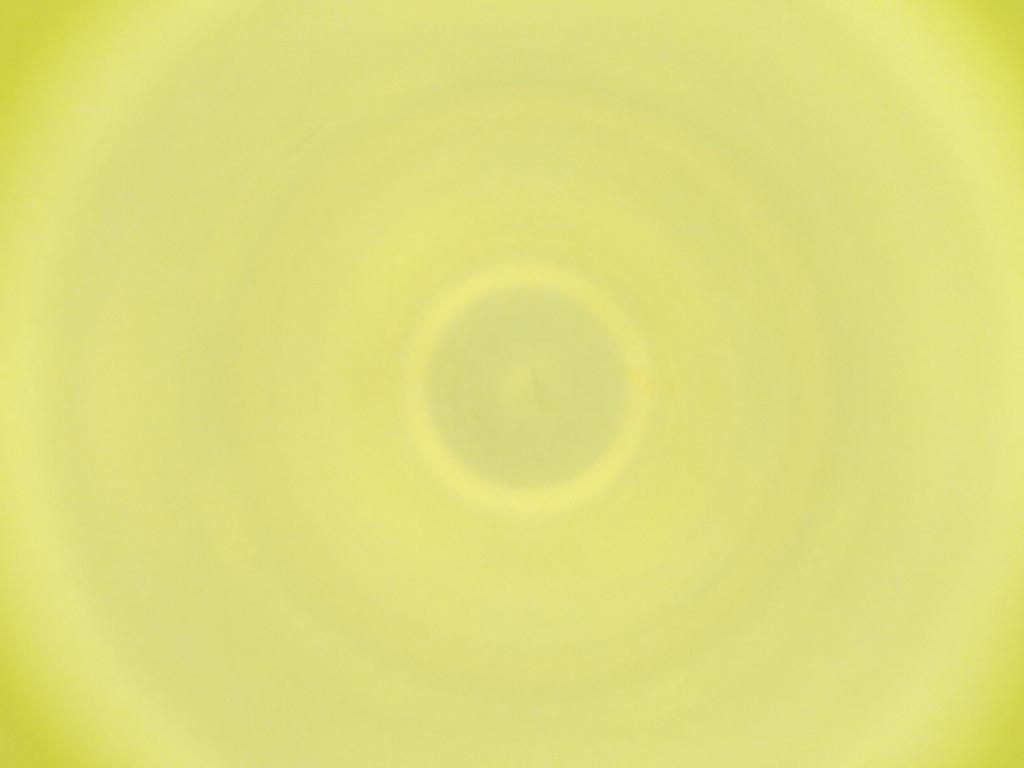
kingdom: Animalia
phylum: Arthropoda
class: Insecta
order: Diptera
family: Cecidomyiidae
